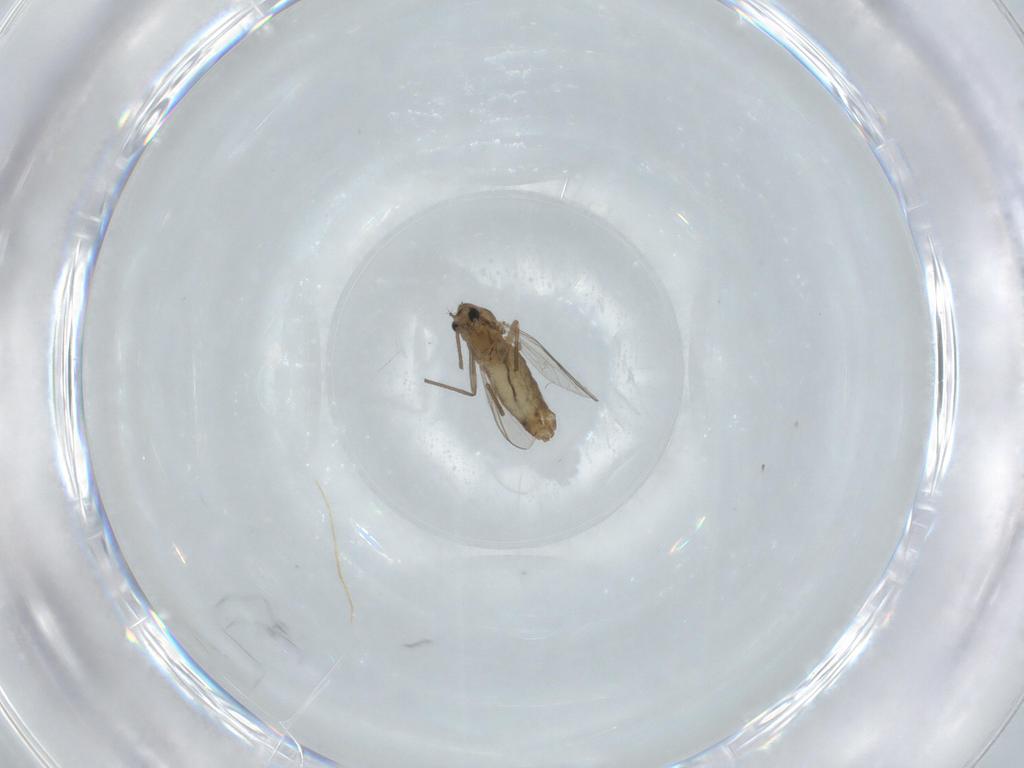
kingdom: Animalia
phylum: Arthropoda
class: Insecta
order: Diptera
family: Chironomidae
